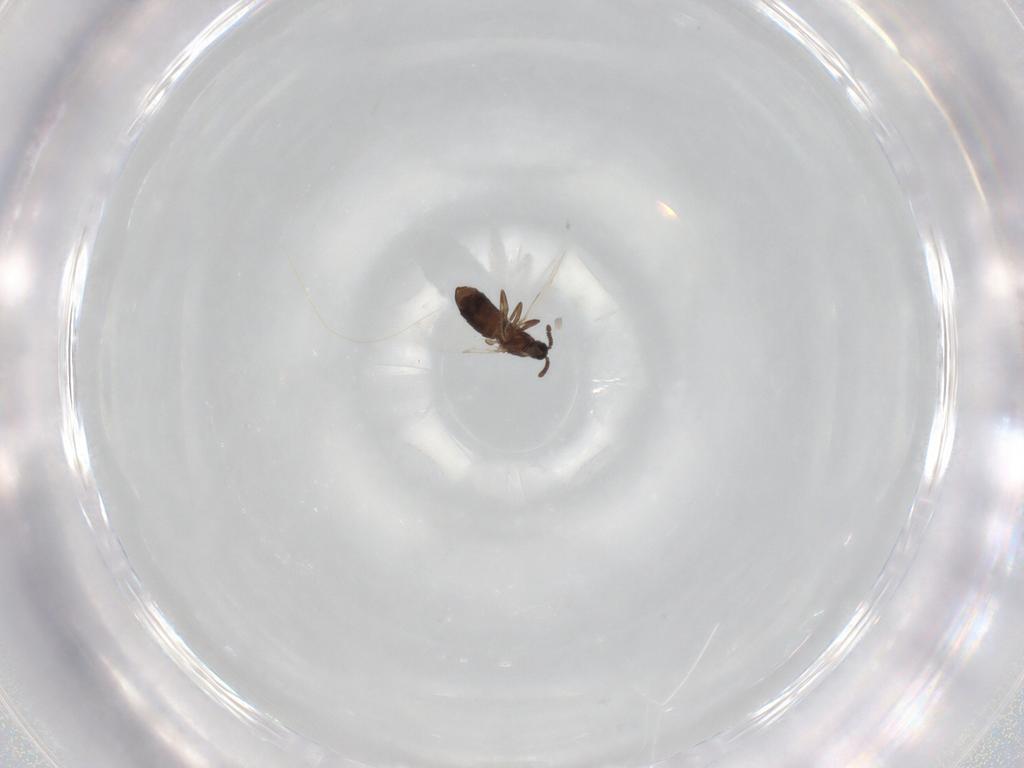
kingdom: Animalia
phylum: Arthropoda
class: Insecta
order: Diptera
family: Scatopsidae
